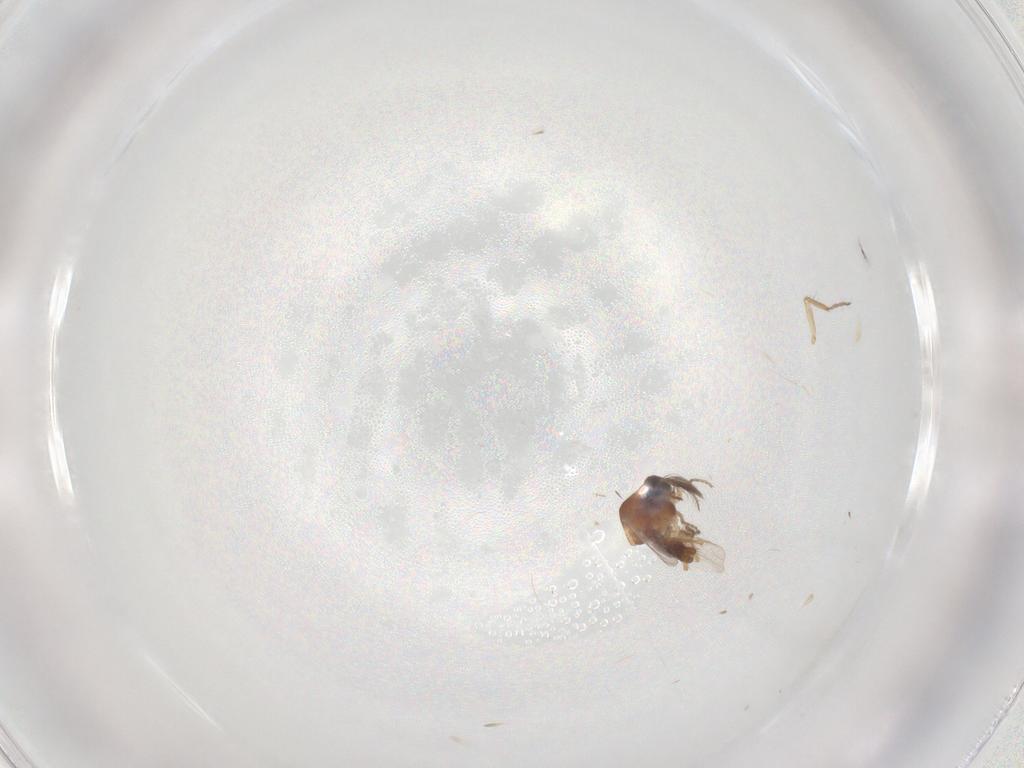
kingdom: Animalia
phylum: Arthropoda
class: Insecta
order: Diptera
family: Ceratopogonidae
